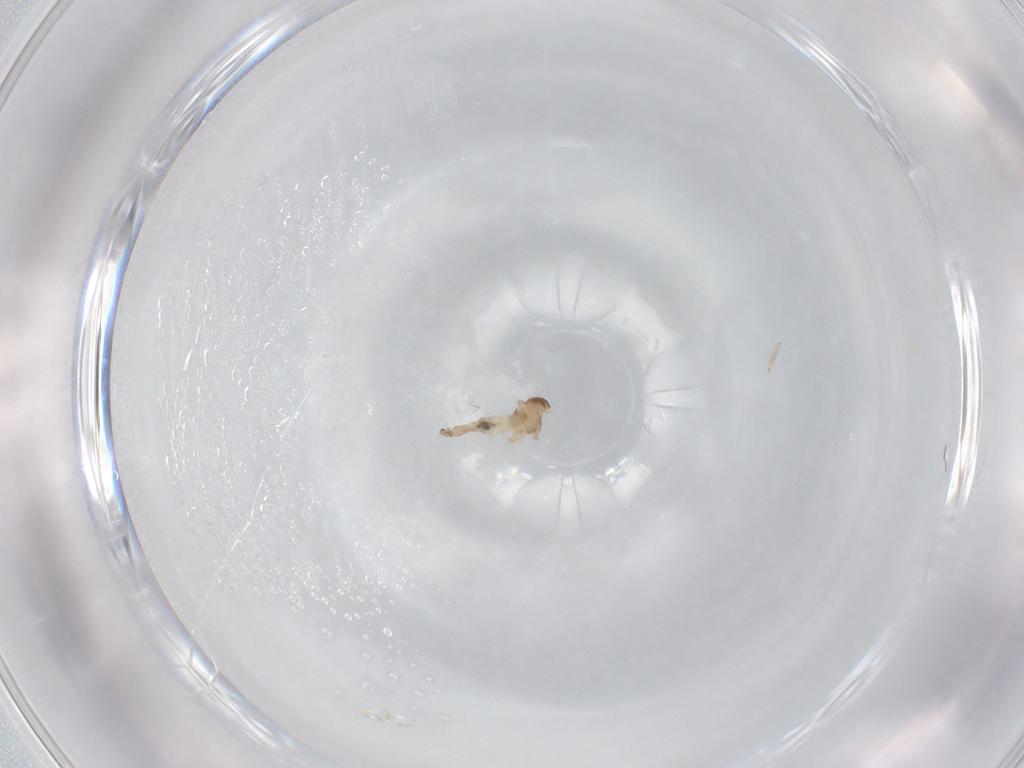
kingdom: Animalia
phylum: Arthropoda
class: Insecta
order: Diptera
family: Cecidomyiidae
